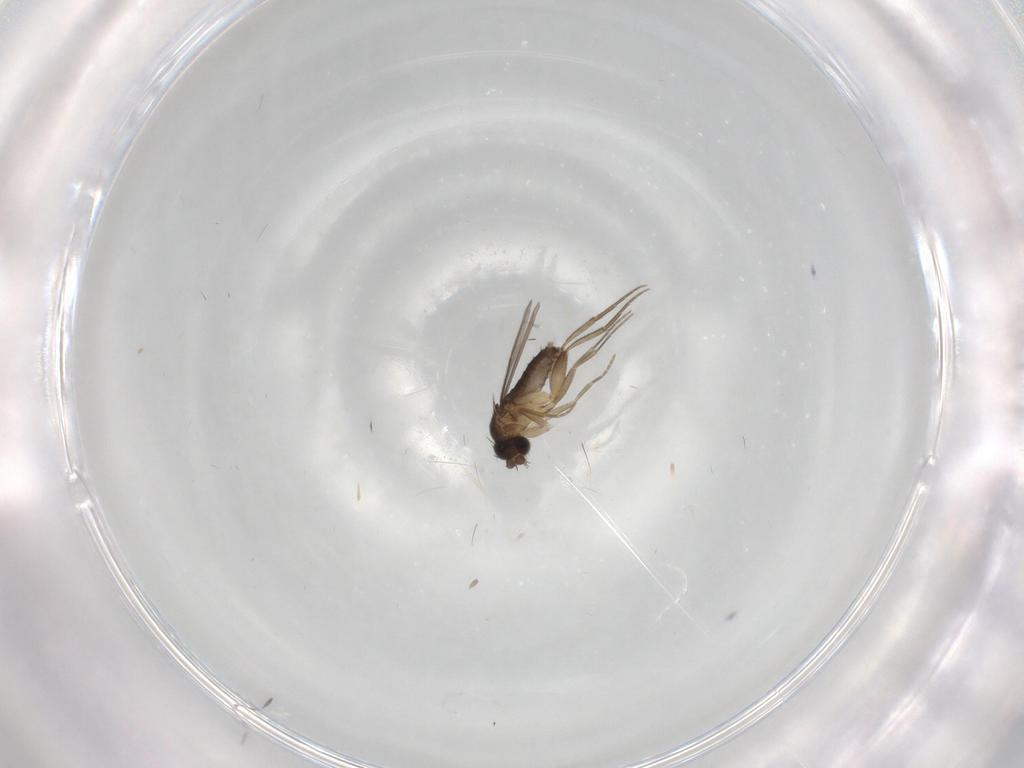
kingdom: Animalia
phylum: Arthropoda
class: Insecta
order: Diptera
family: Phoridae
